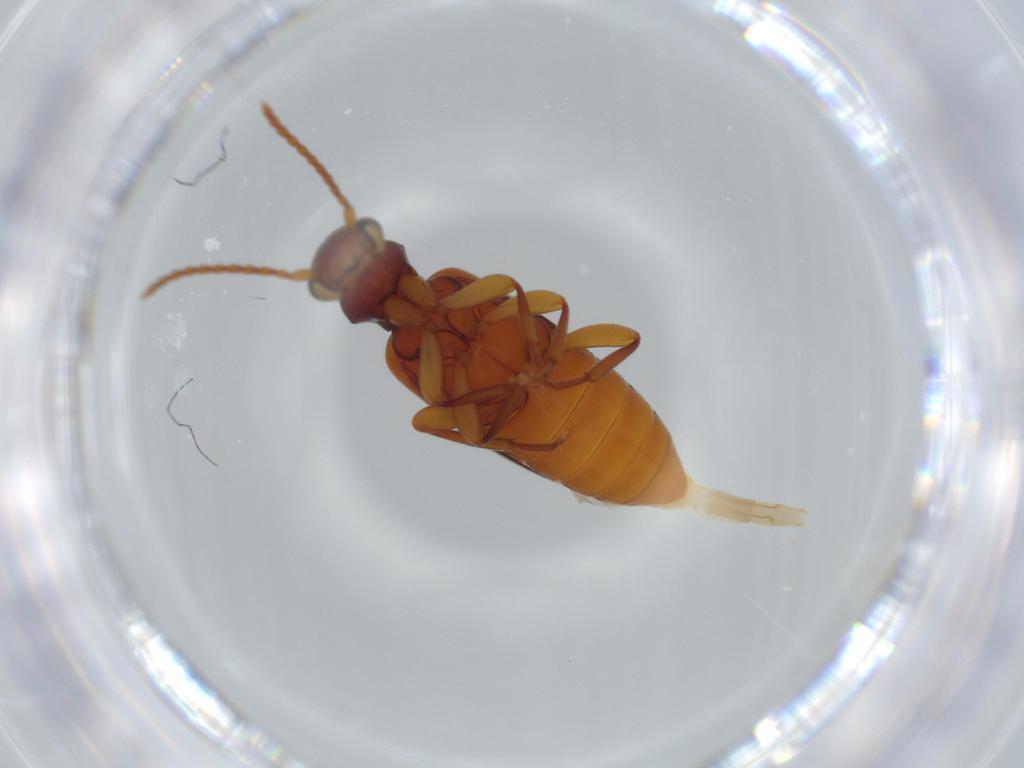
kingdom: Animalia
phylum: Arthropoda
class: Insecta
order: Coleoptera
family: Anthicidae
